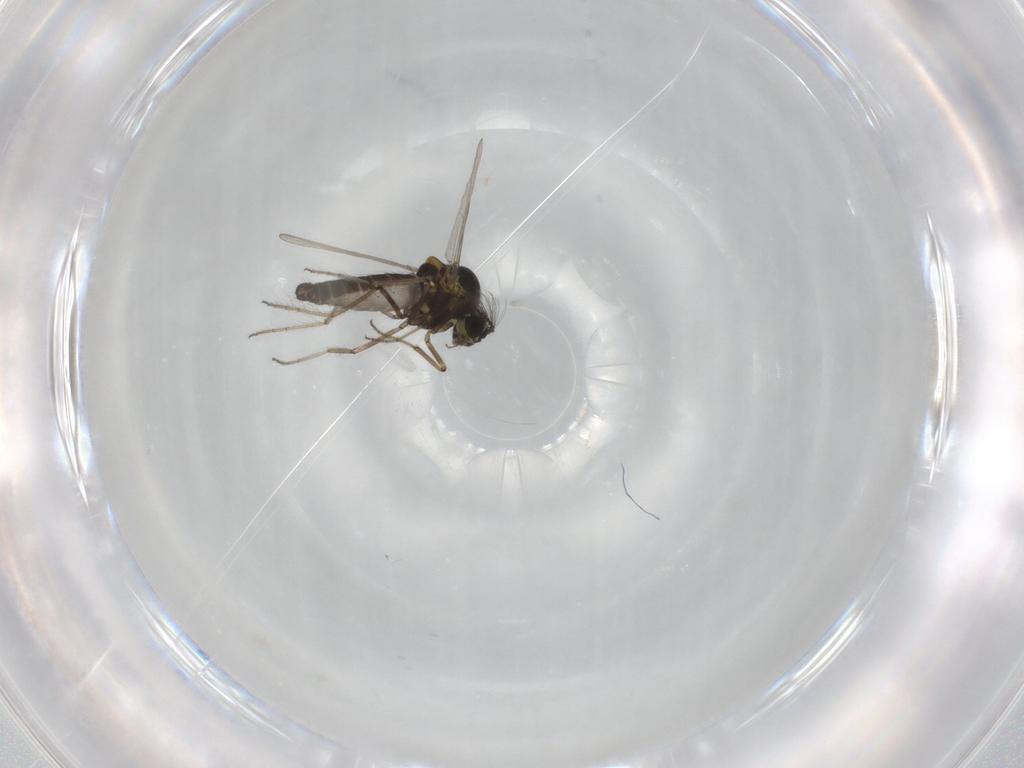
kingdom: Animalia
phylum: Arthropoda
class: Insecta
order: Diptera
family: Ceratopogonidae
